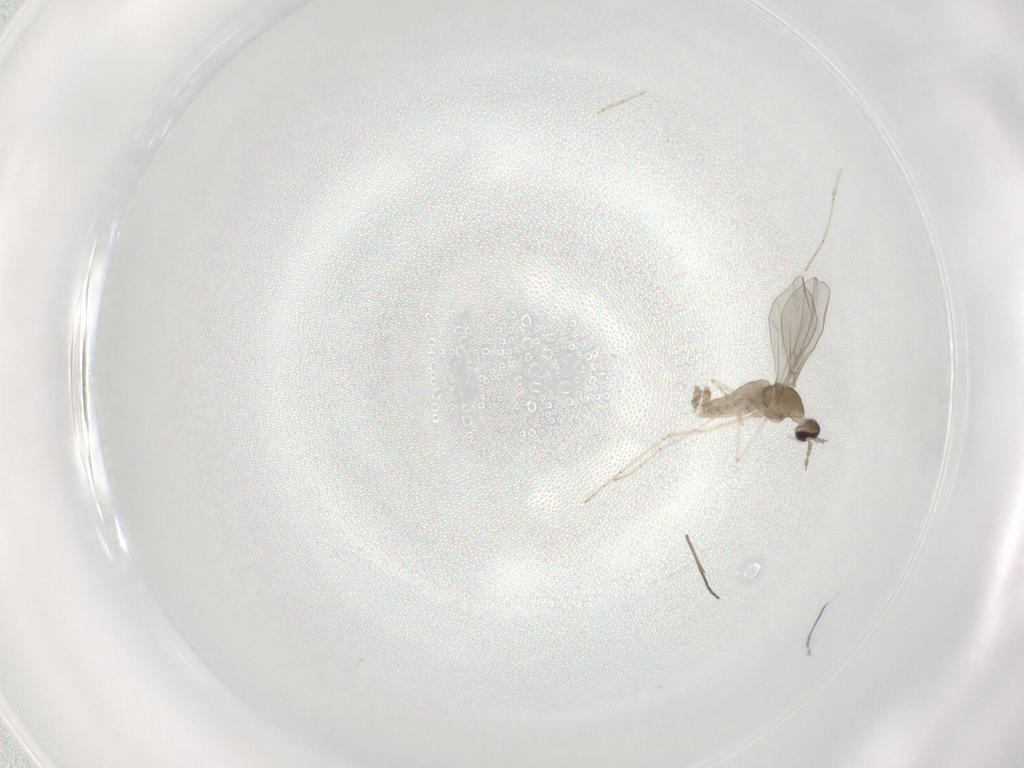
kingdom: Animalia
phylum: Arthropoda
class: Insecta
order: Diptera
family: Cecidomyiidae
